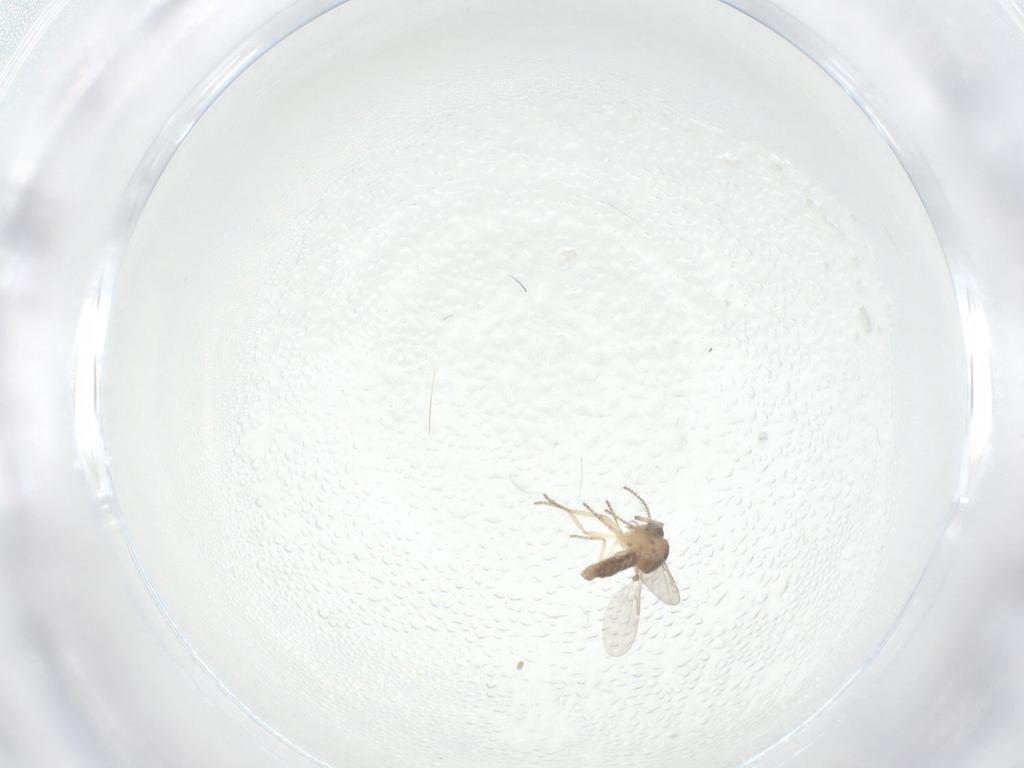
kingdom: Animalia
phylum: Arthropoda
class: Insecta
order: Diptera
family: Ceratopogonidae
